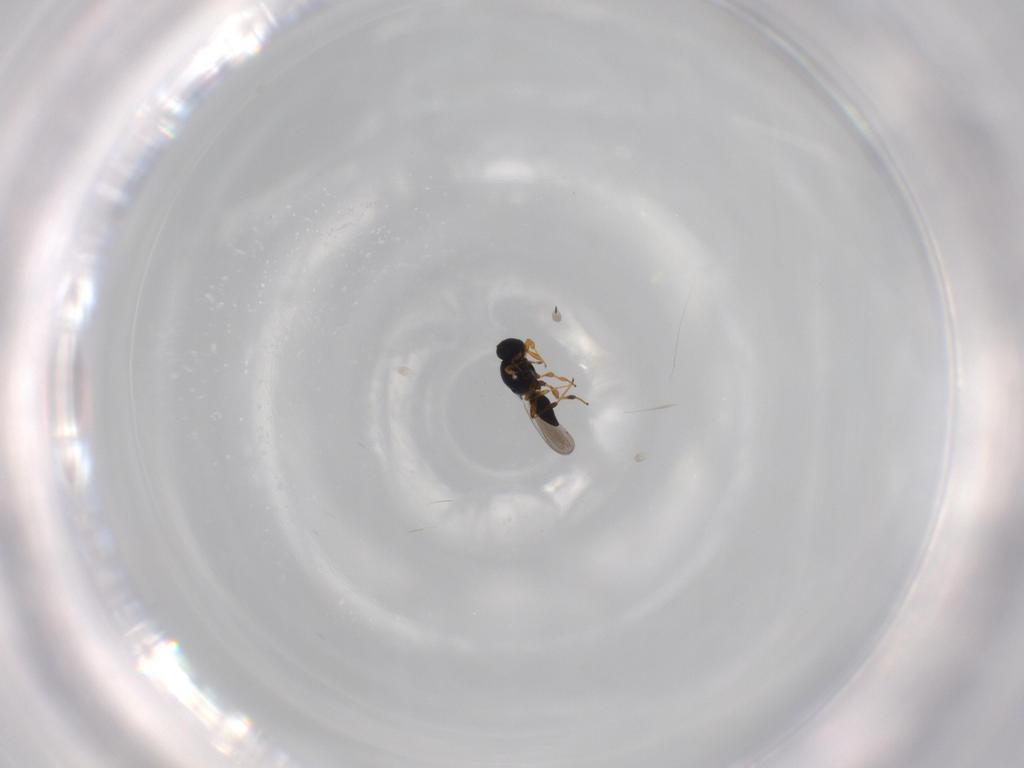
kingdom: Animalia
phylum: Arthropoda
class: Insecta
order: Hymenoptera
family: Platygastridae
